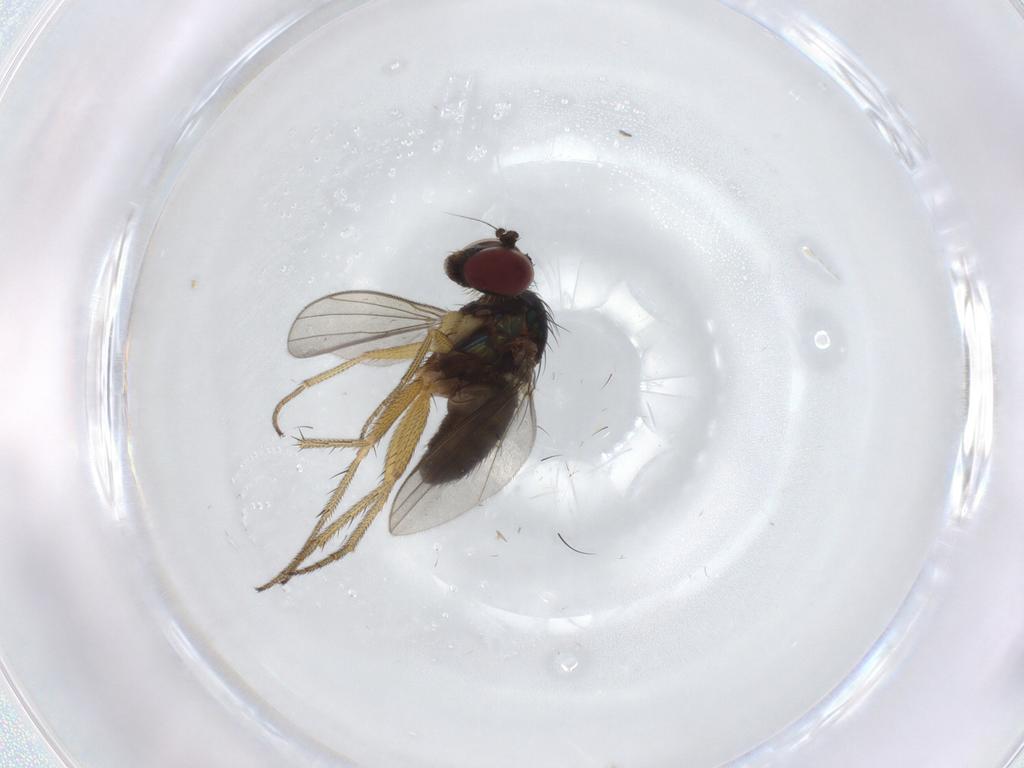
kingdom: Animalia
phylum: Arthropoda
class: Insecta
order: Diptera
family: Dolichopodidae
